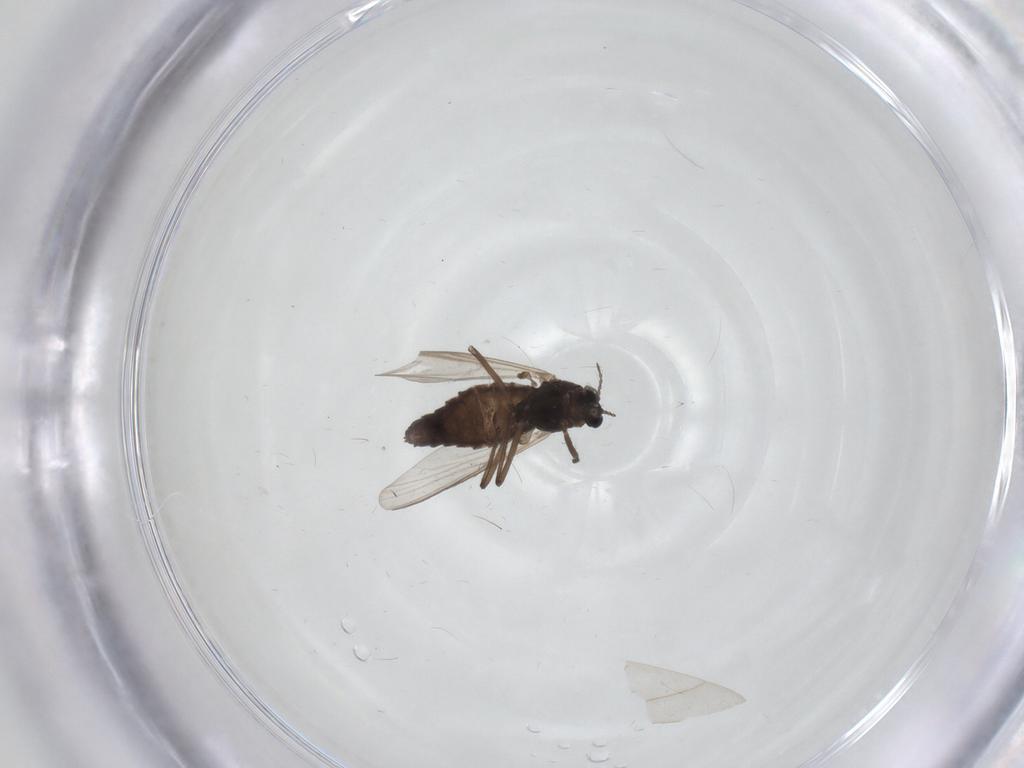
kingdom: Animalia
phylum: Arthropoda
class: Insecta
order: Diptera
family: Chironomidae
